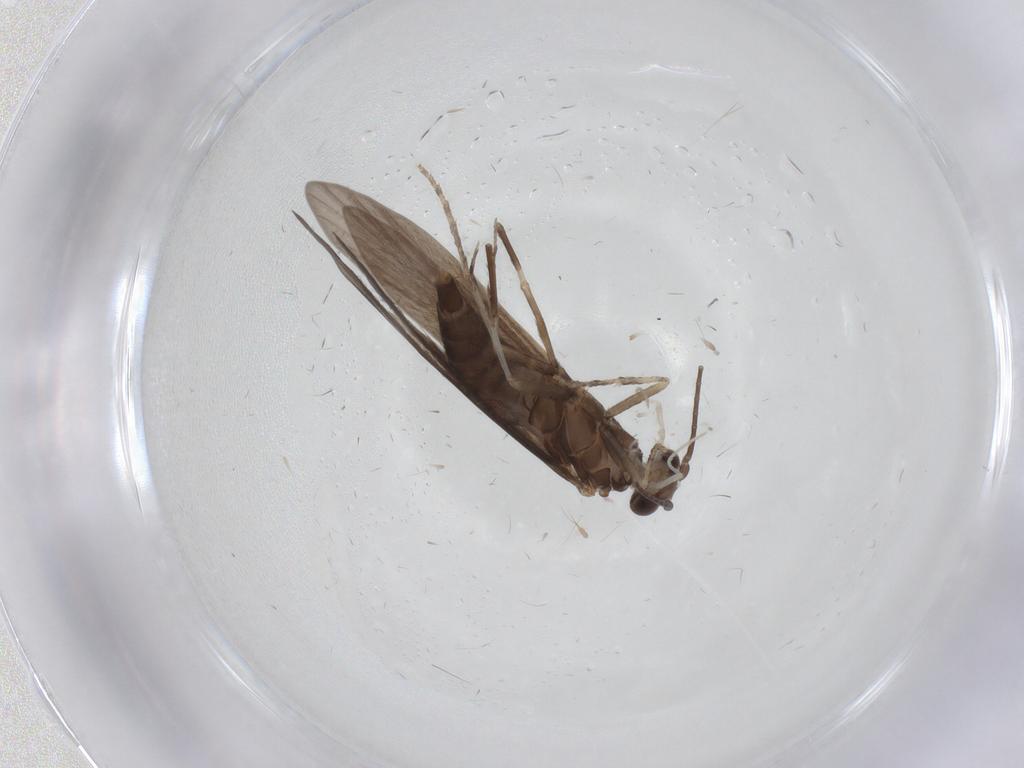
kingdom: Animalia
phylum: Arthropoda
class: Insecta
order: Trichoptera
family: Xiphocentronidae
